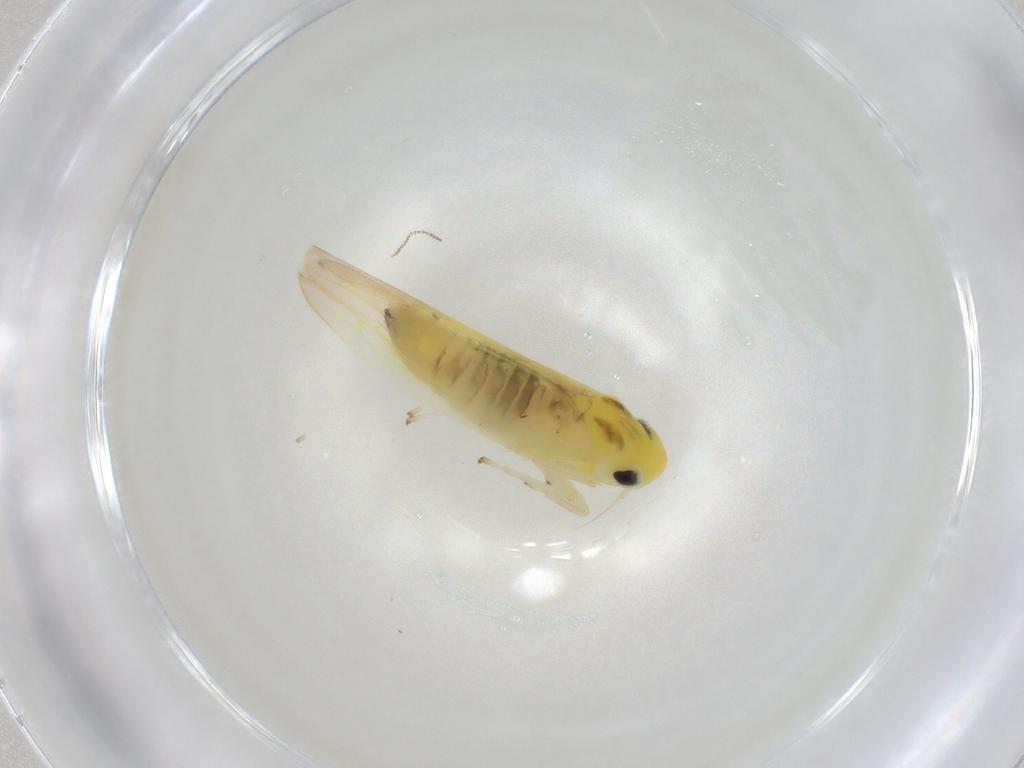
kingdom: Animalia
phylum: Arthropoda
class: Insecta
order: Hemiptera
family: Cicadellidae
